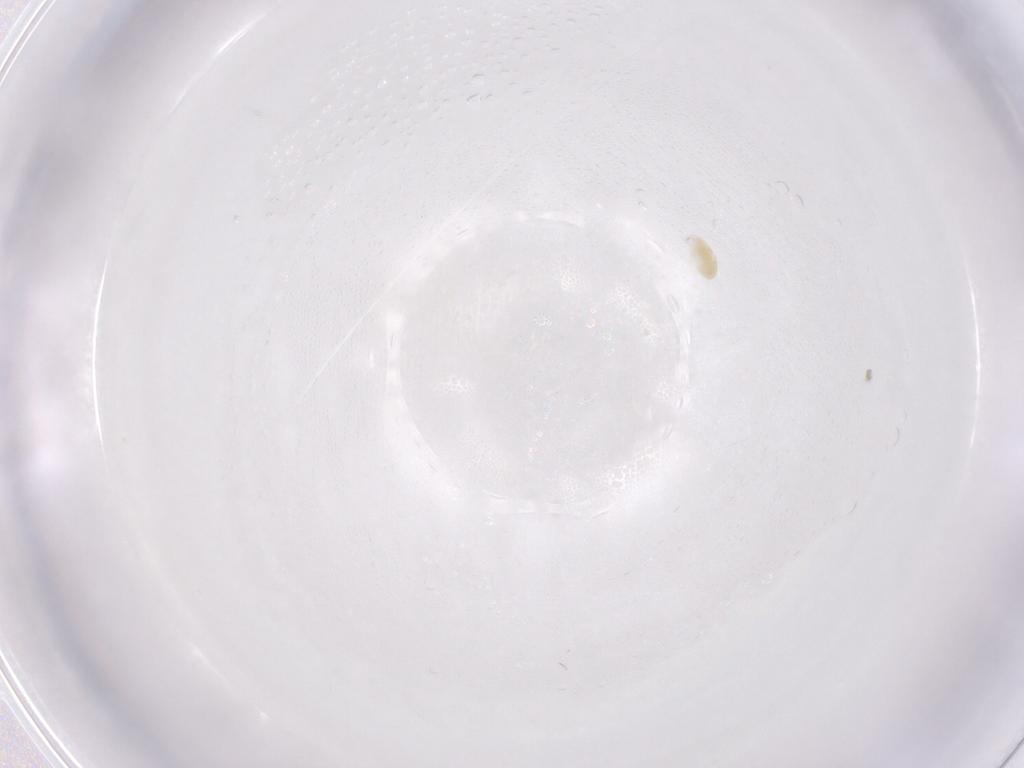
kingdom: Animalia
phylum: Arthropoda
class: Arachnida
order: Trombidiformes
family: Eupodidae
